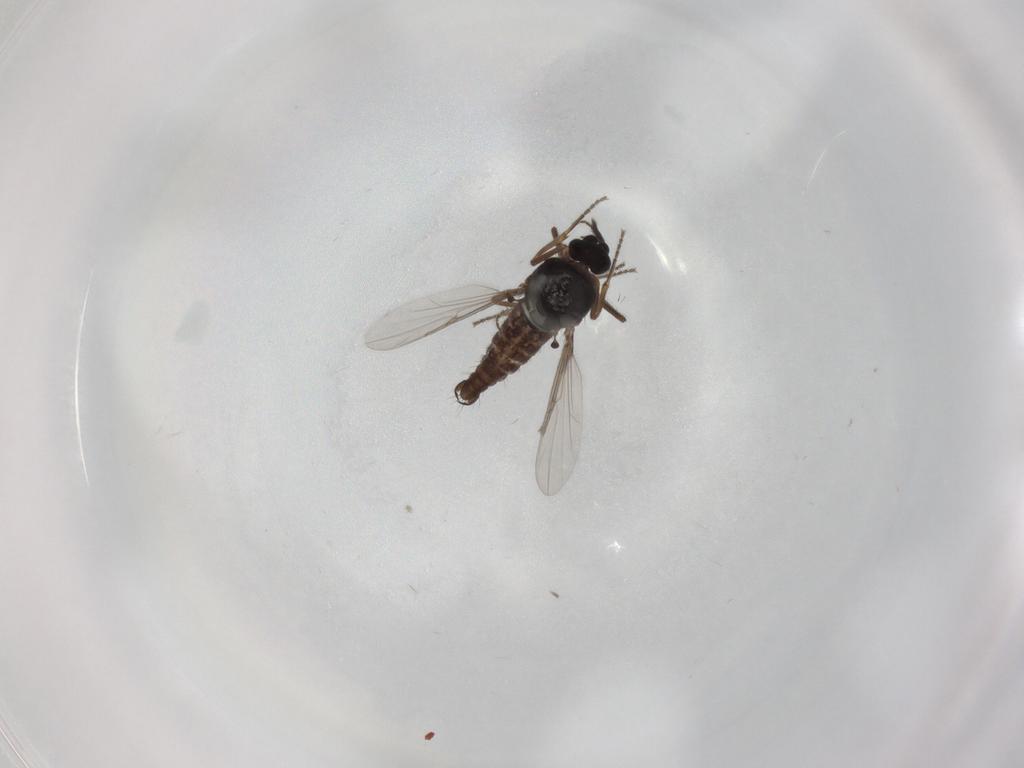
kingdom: Animalia
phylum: Arthropoda
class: Insecta
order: Diptera
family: Ceratopogonidae
